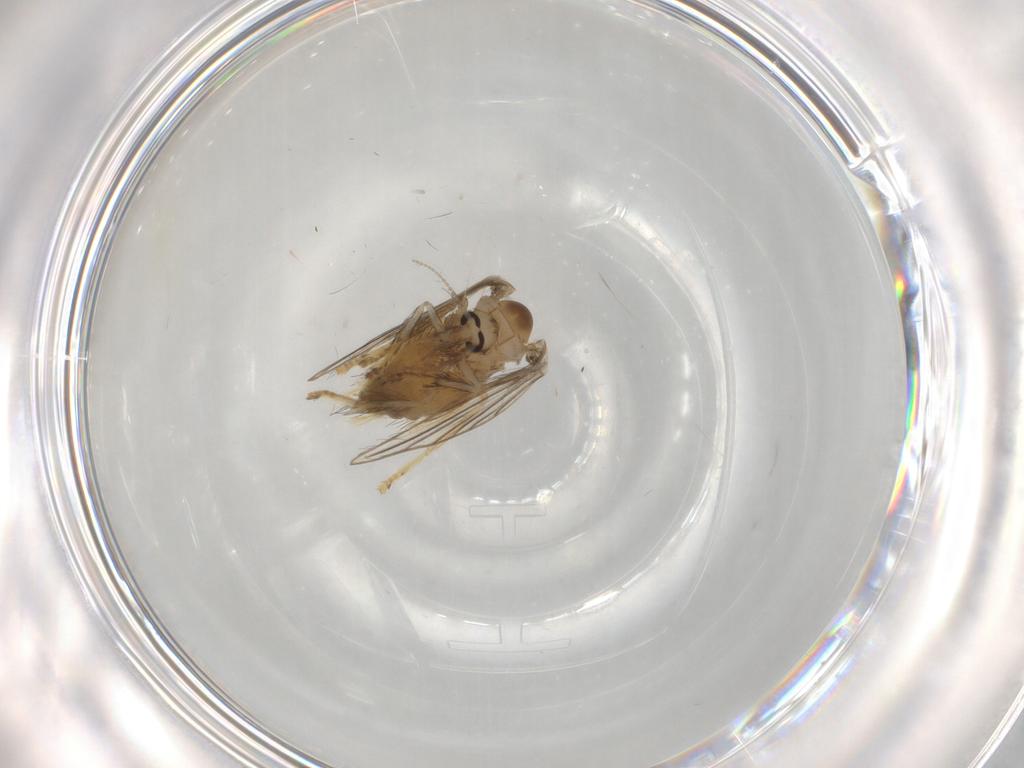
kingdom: Animalia
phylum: Arthropoda
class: Insecta
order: Diptera
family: Psychodidae
